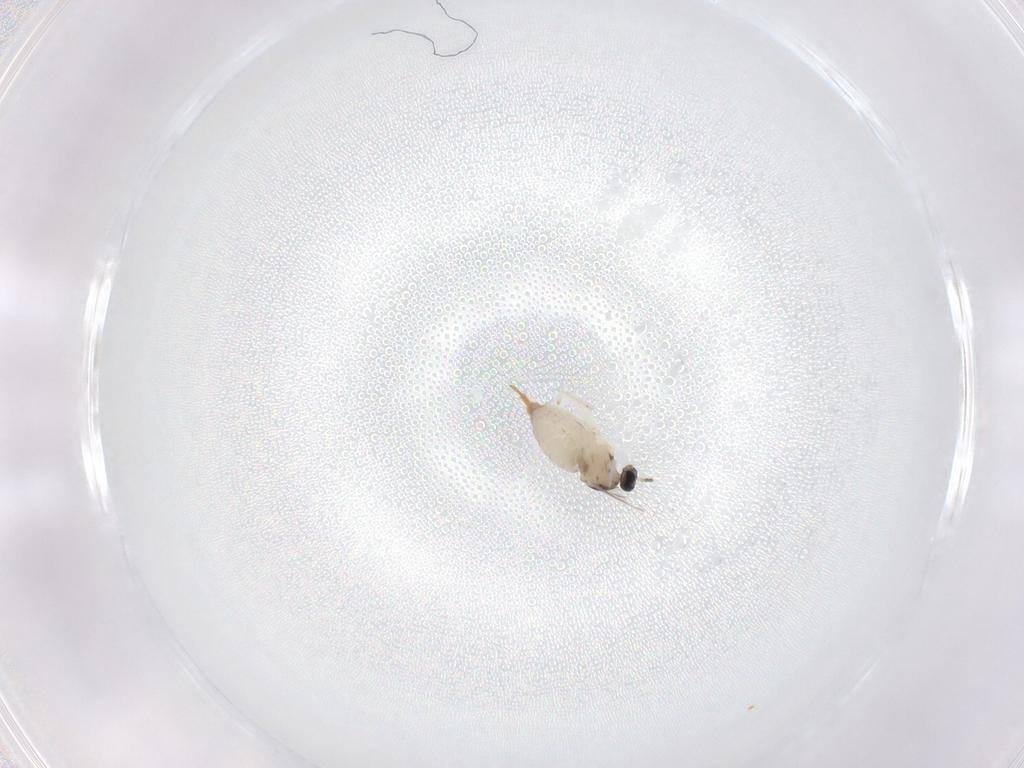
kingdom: Animalia
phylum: Arthropoda
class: Insecta
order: Diptera
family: Cecidomyiidae
